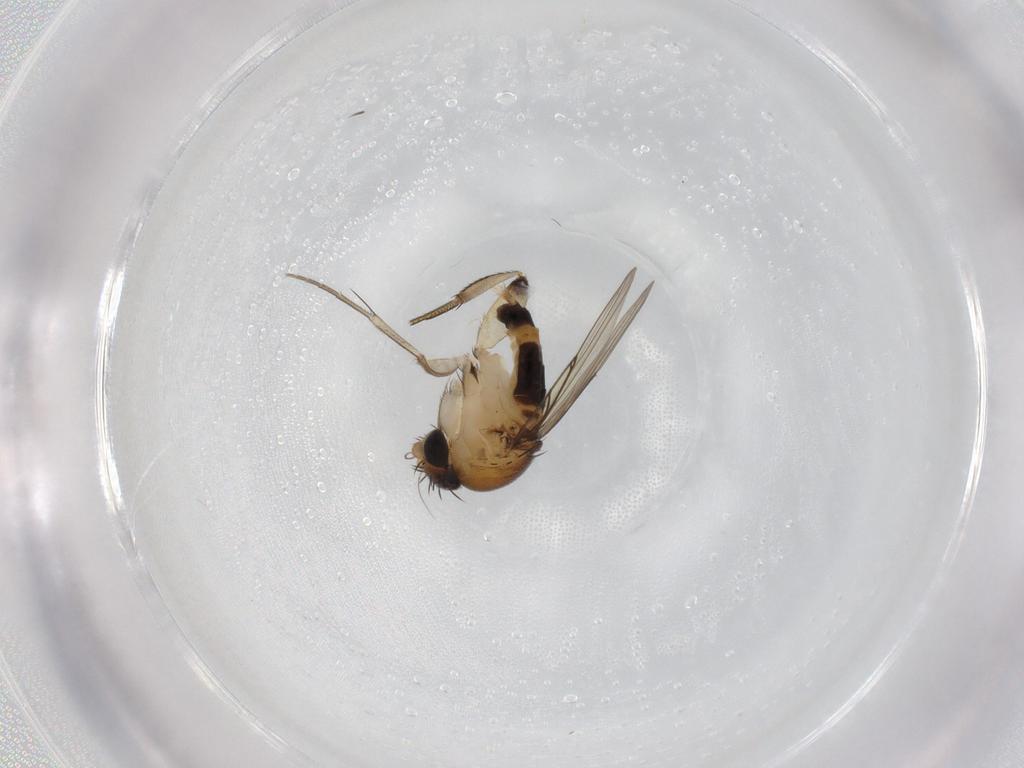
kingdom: Animalia
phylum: Arthropoda
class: Insecta
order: Diptera
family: Phoridae
